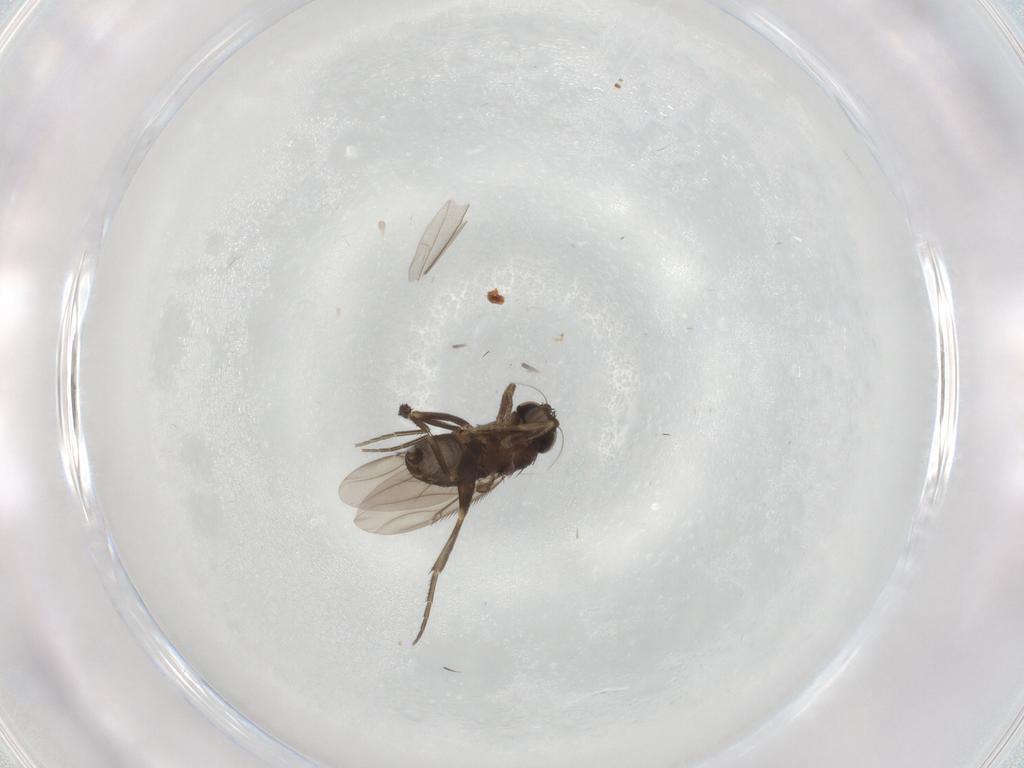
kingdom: Animalia
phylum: Arthropoda
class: Insecta
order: Diptera
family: Phoridae
